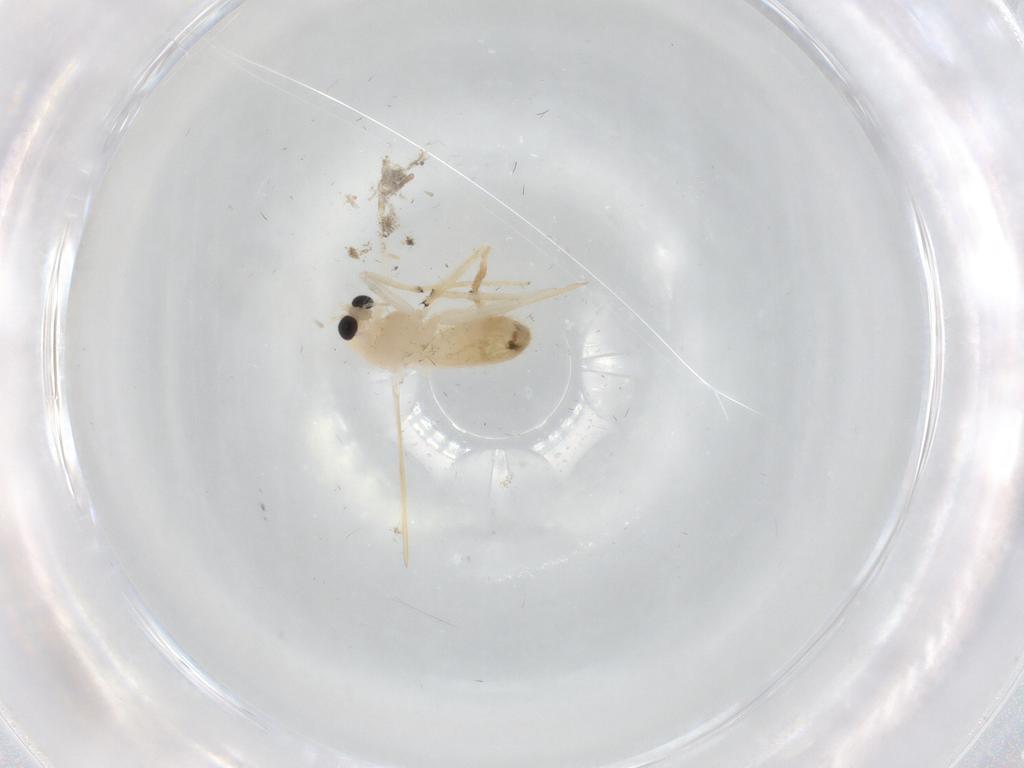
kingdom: Animalia
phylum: Arthropoda
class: Insecta
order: Diptera
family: Chironomidae
